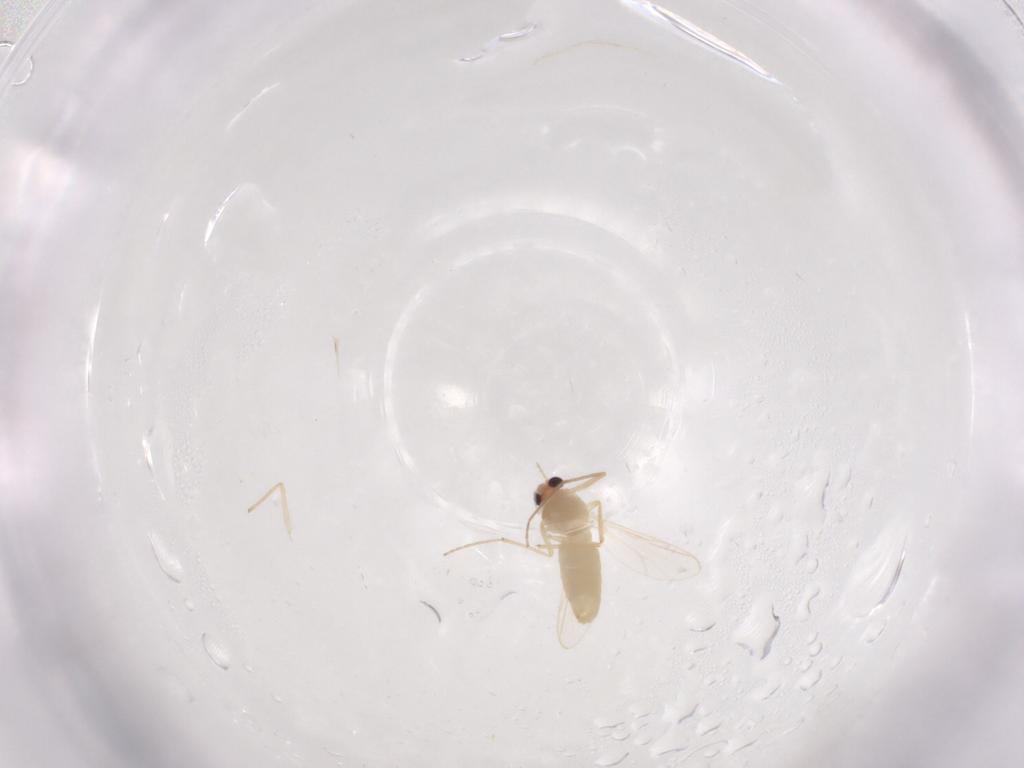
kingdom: Animalia
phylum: Arthropoda
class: Insecta
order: Diptera
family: Chironomidae
